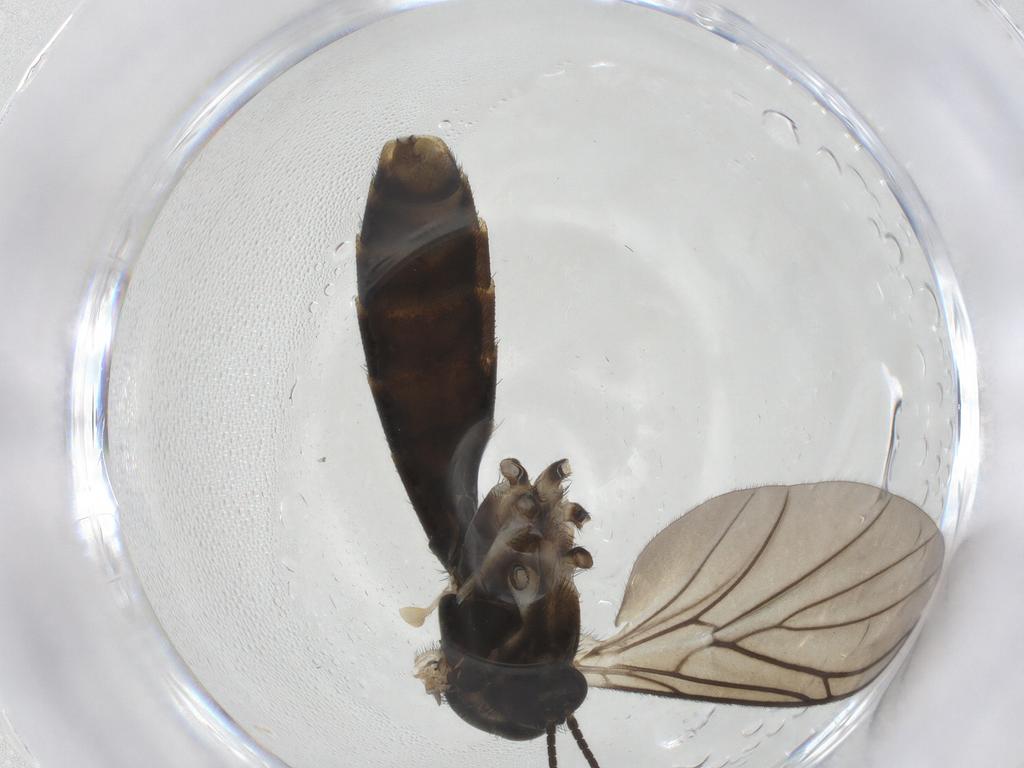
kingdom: Animalia
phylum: Arthropoda
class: Insecta
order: Diptera
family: Keroplatidae
